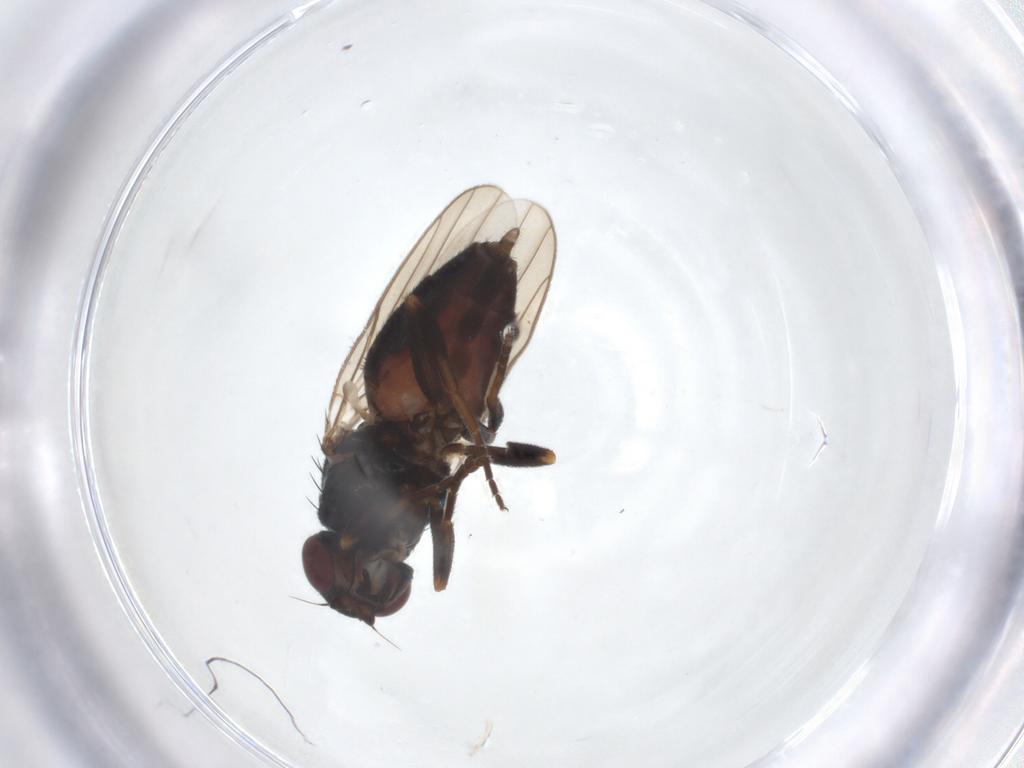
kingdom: Animalia
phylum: Arthropoda
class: Insecta
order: Diptera
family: Chloropidae
